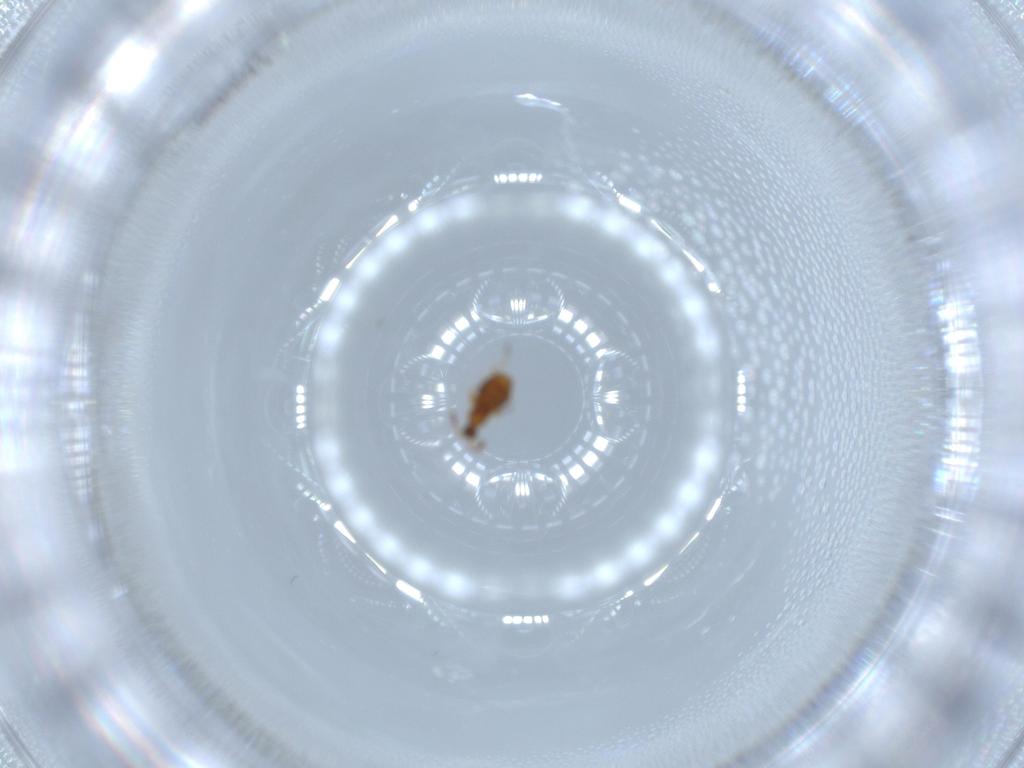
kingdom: Animalia
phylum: Arthropoda
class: Insecta
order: Coleoptera
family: Staphylinidae
